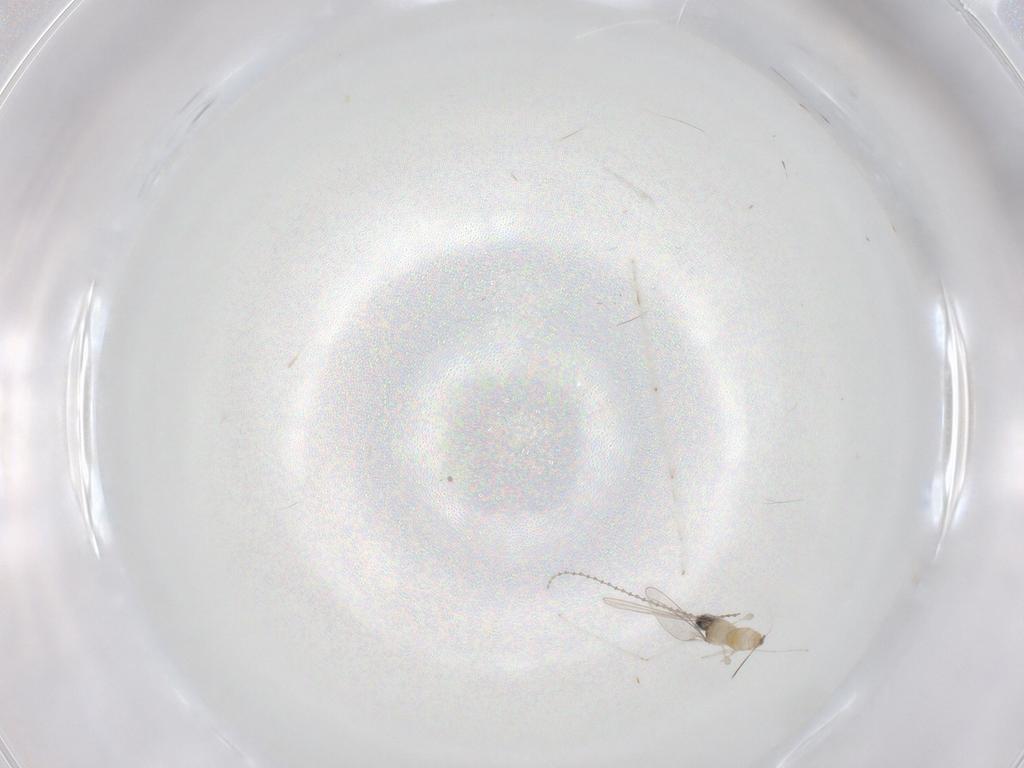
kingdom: Animalia
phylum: Arthropoda
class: Insecta
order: Diptera
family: Cecidomyiidae
